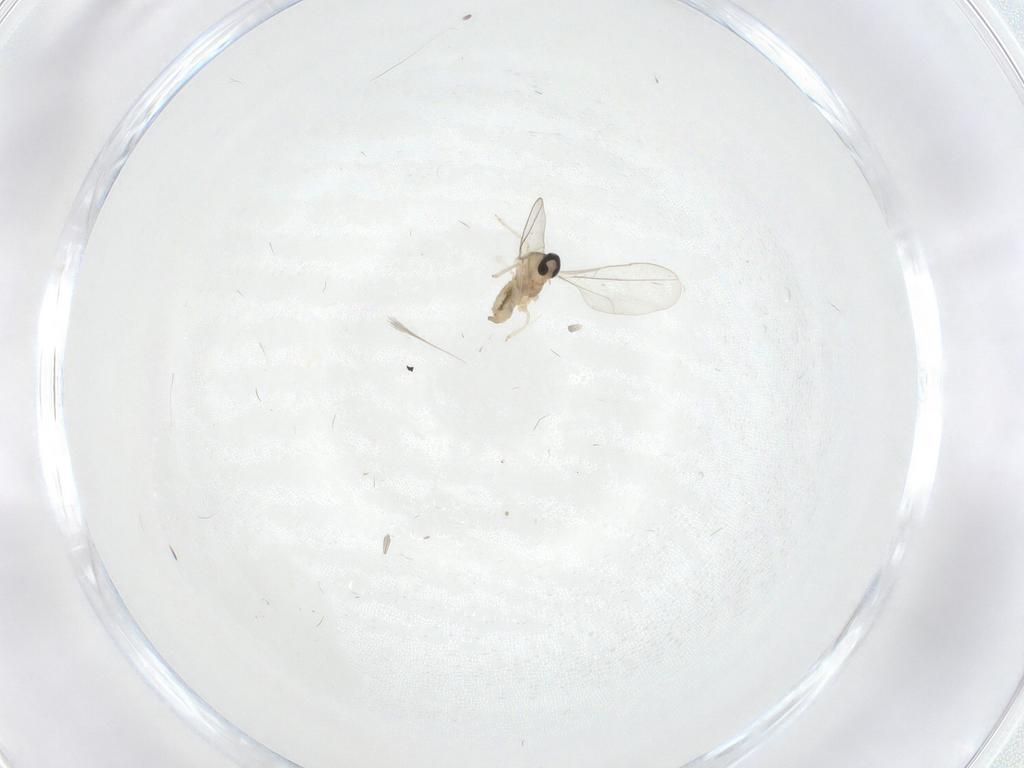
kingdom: Animalia
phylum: Arthropoda
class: Insecta
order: Diptera
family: Cecidomyiidae
